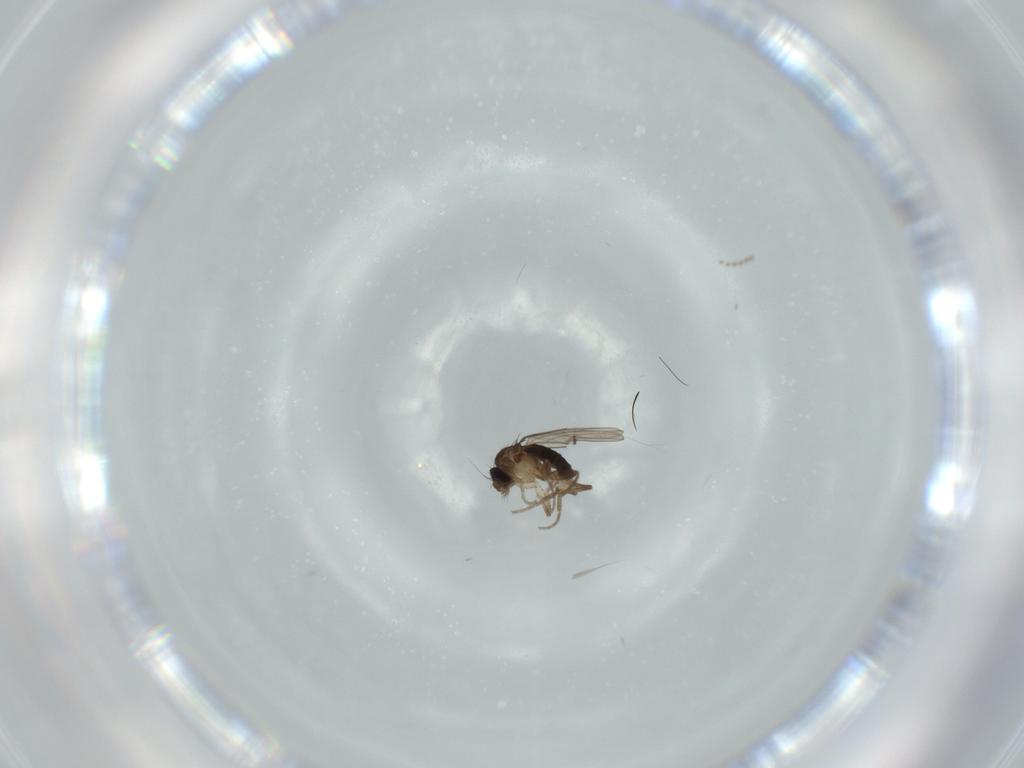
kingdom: Animalia
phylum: Arthropoda
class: Insecta
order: Diptera
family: Phoridae
